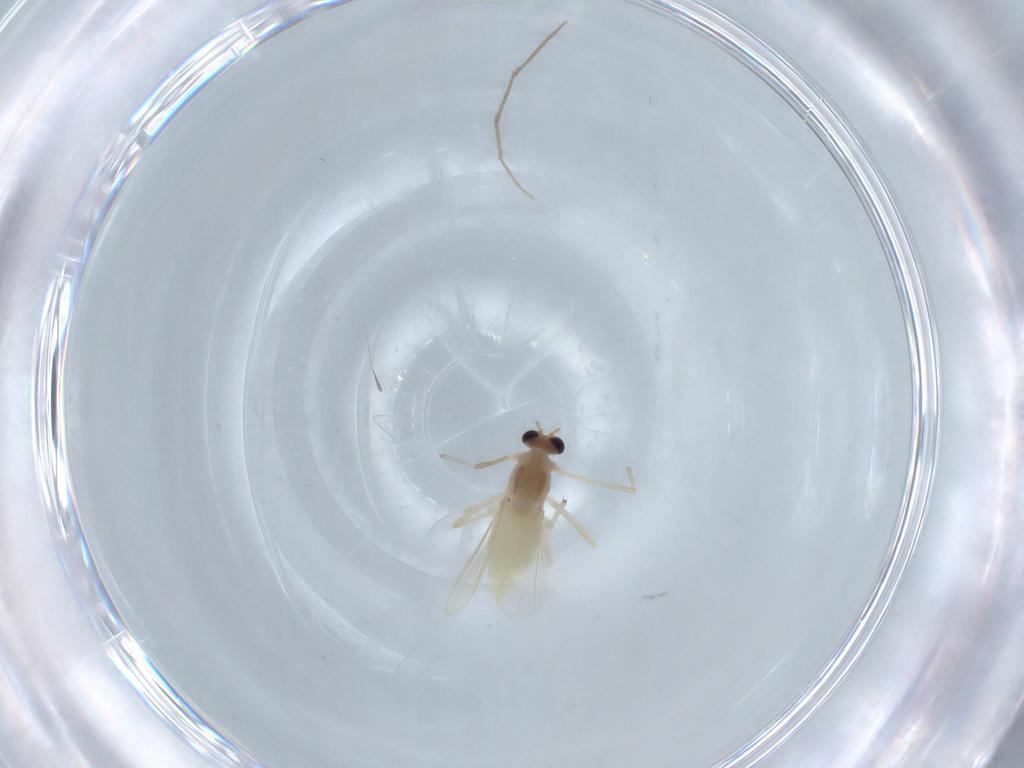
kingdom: Animalia
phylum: Arthropoda
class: Insecta
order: Diptera
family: Chironomidae
